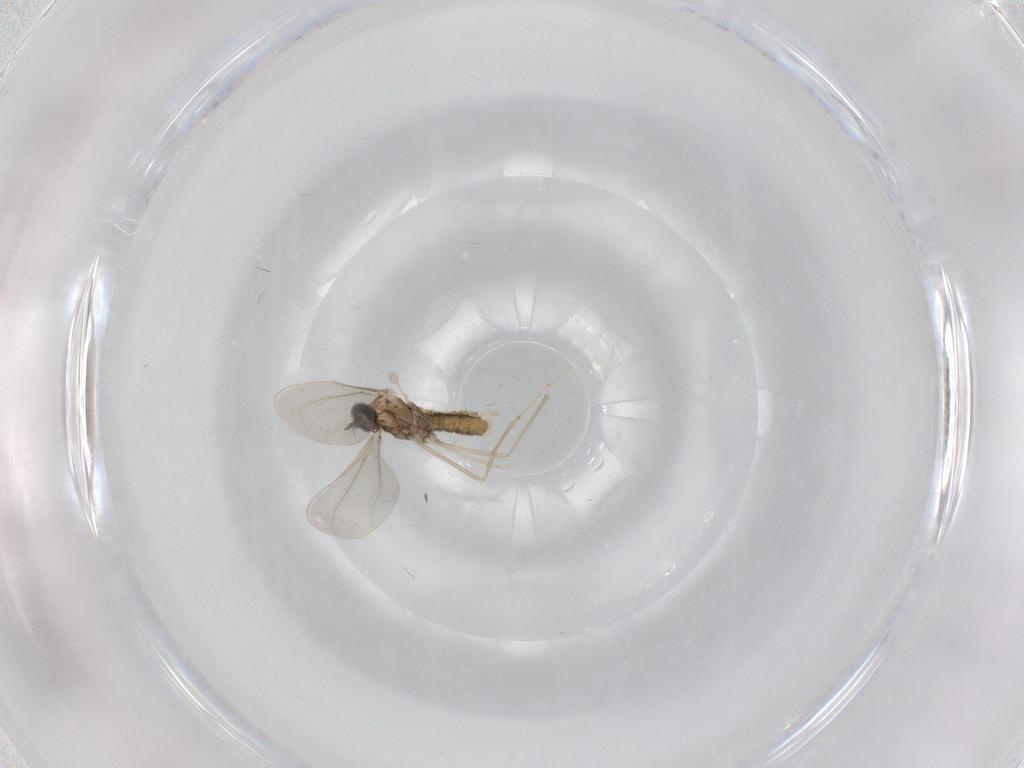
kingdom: Animalia
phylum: Arthropoda
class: Insecta
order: Diptera
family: Cecidomyiidae
